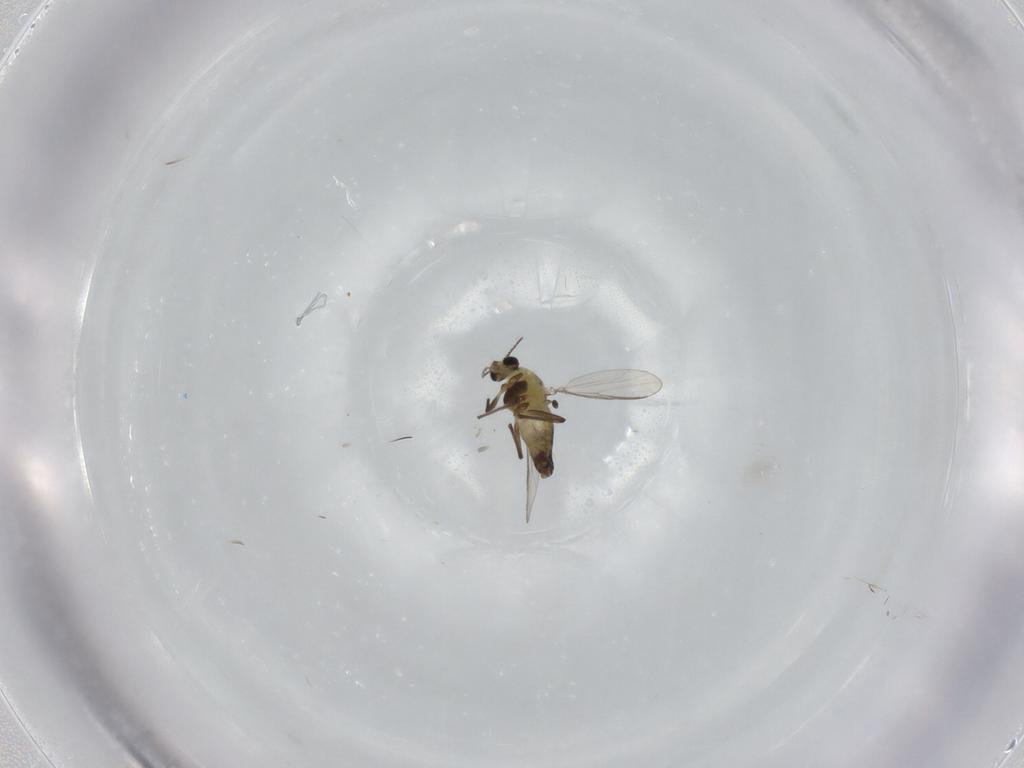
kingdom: Animalia
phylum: Arthropoda
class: Insecta
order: Diptera
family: Chironomidae
